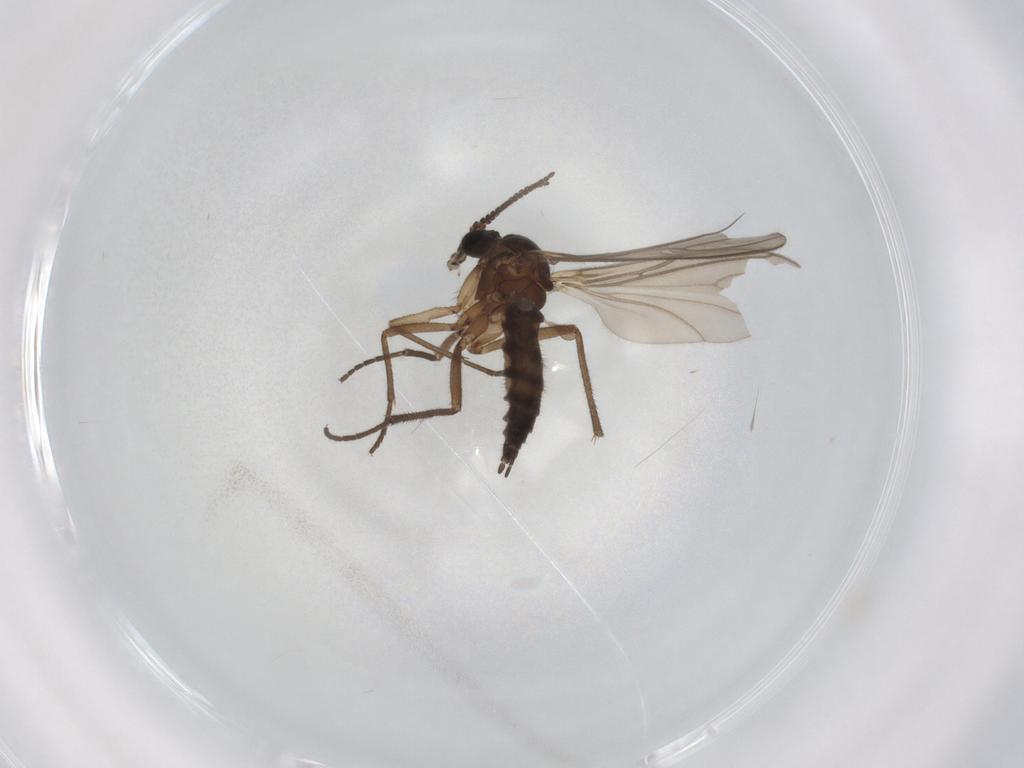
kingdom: Animalia
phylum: Arthropoda
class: Insecta
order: Diptera
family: Sciaridae
